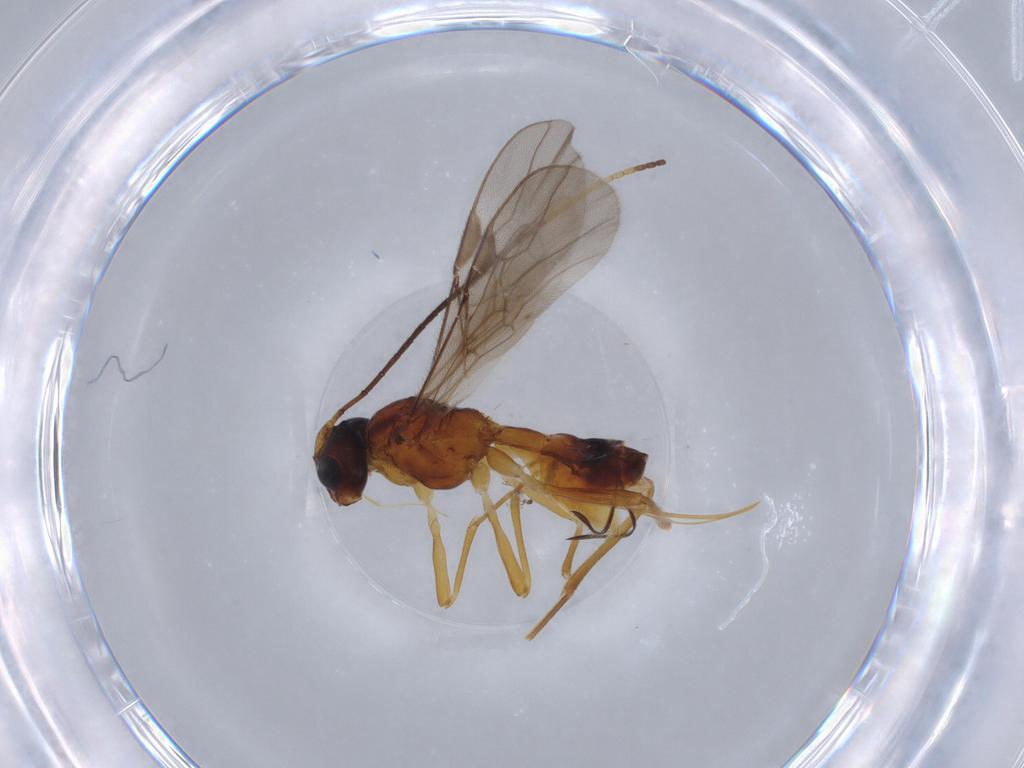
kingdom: Animalia
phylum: Arthropoda
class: Insecta
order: Hymenoptera
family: Braconidae
